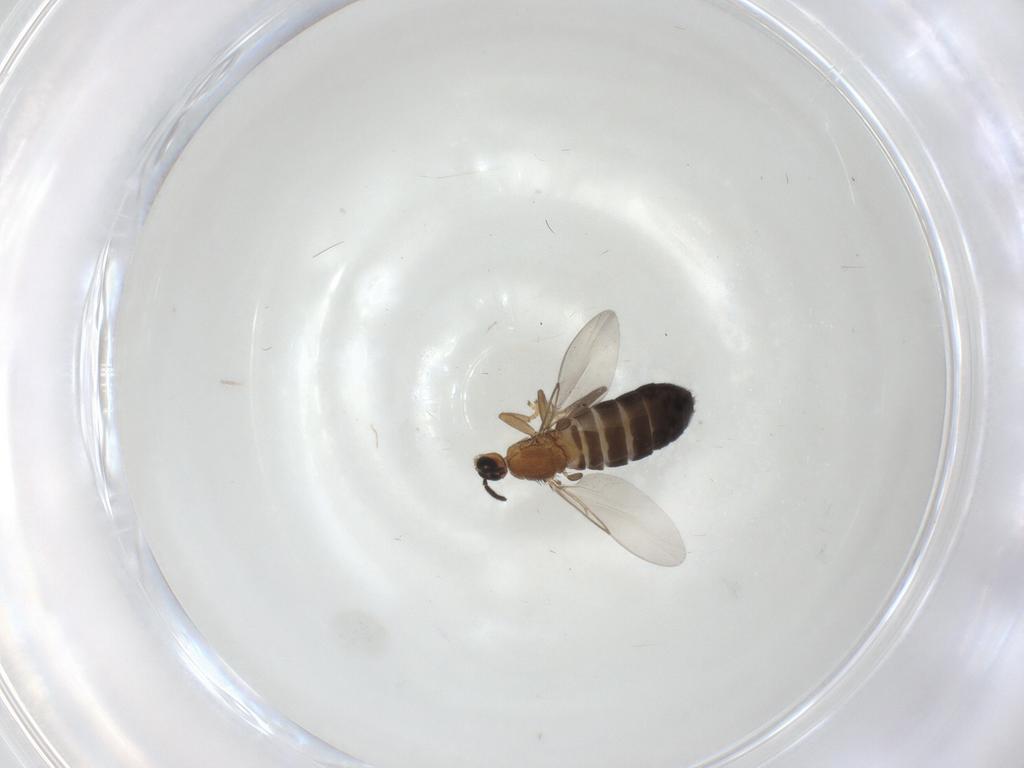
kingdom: Animalia
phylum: Arthropoda
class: Insecta
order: Diptera
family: Scatopsidae
